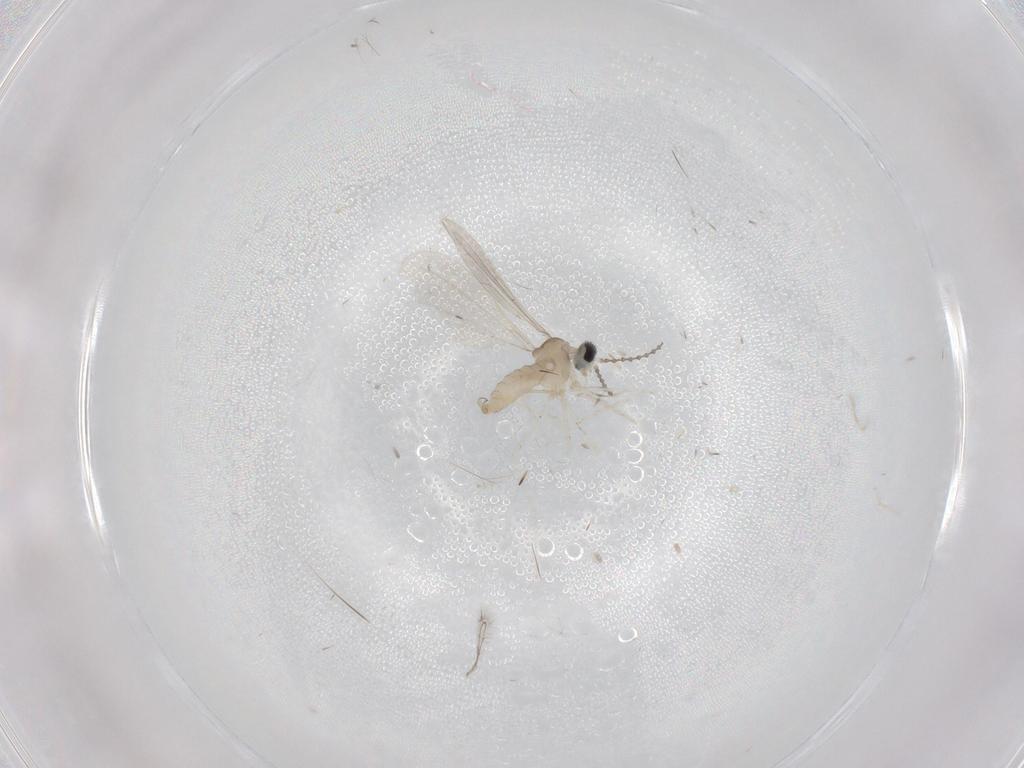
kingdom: Animalia
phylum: Arthropoda
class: Insecta
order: Diptera
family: Cecidomyiidae
